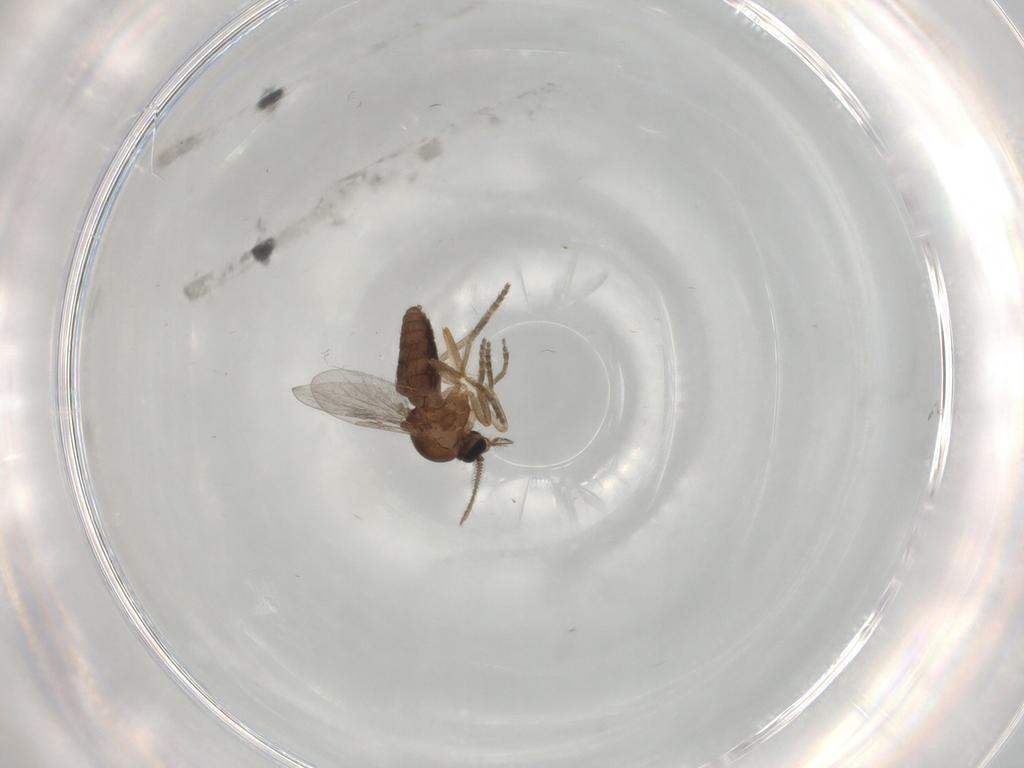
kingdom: Animalia
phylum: Arthropoda
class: Insecta
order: Diptera
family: Ceratopogonidae
